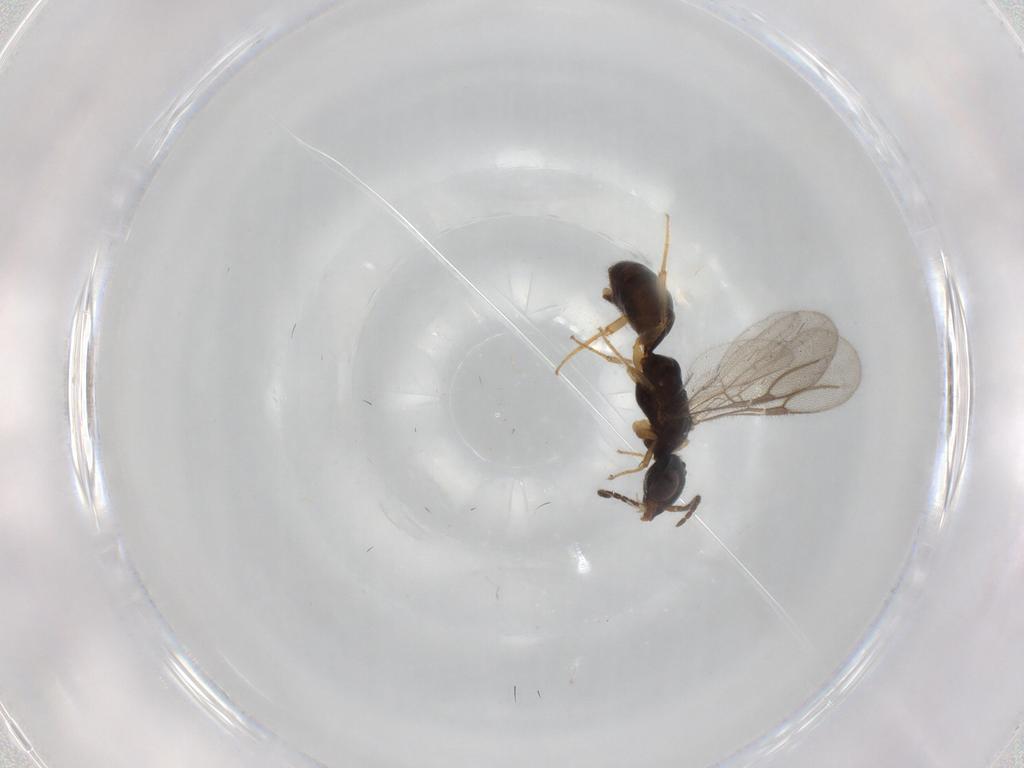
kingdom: Animalia
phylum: Arthropoda
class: Insecta
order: Hymenoptera
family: Bethylidae
